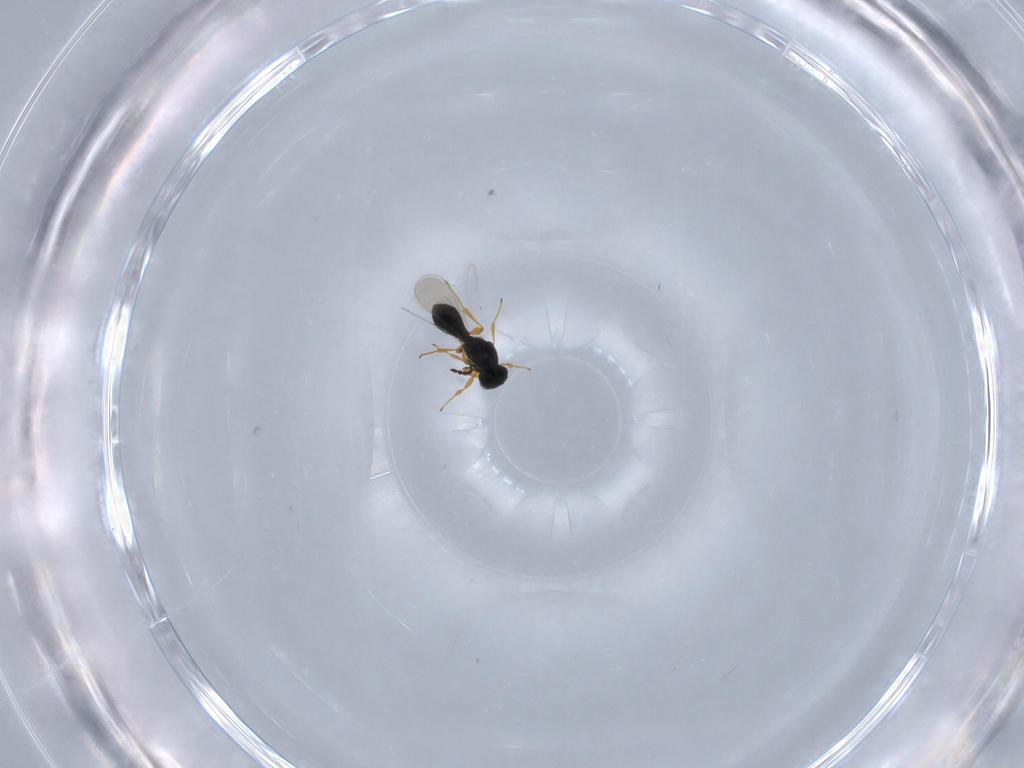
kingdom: Animalia
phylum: Arthropoda
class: Insecta
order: Hymenoptera
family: Platygastridae
